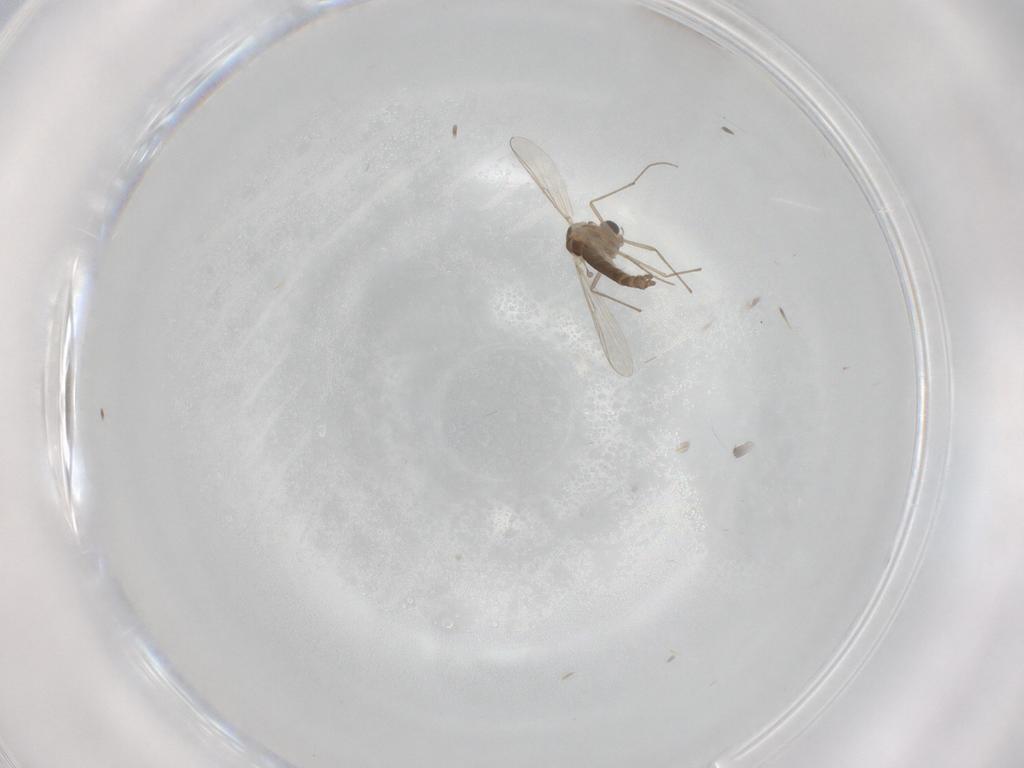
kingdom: Animalia
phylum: Arthropoda
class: Insecta
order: Diptera
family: Chironomidae
